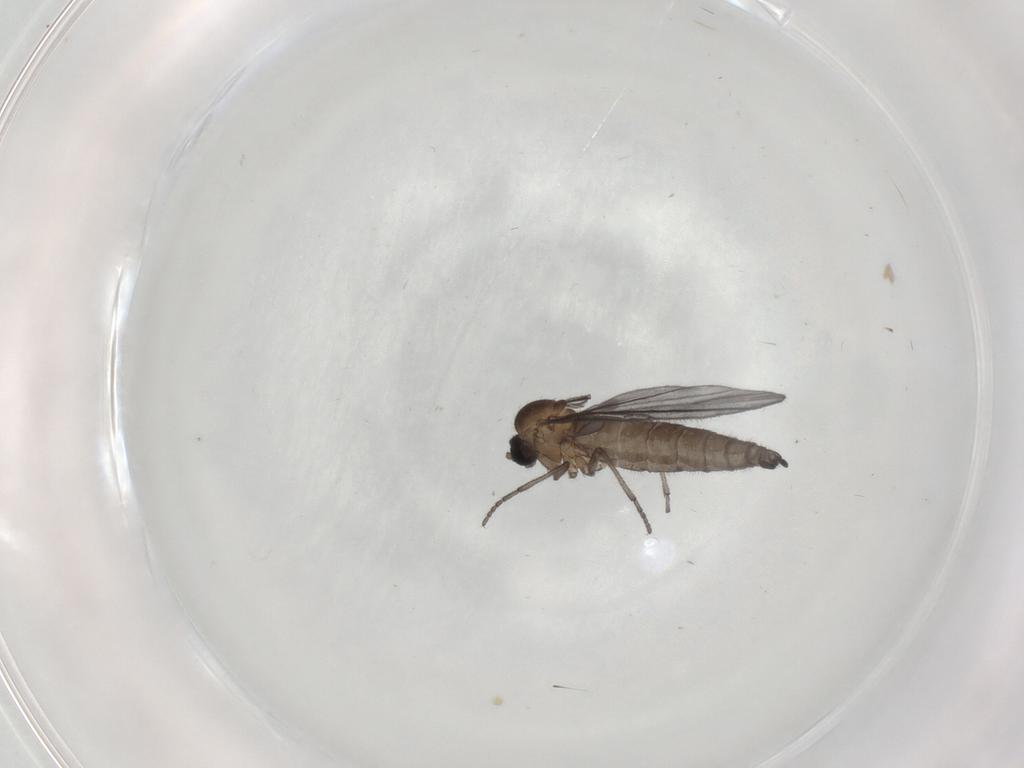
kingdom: Animalia
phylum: Arthropoda
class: Insecta
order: Diptera
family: Sciaridae
